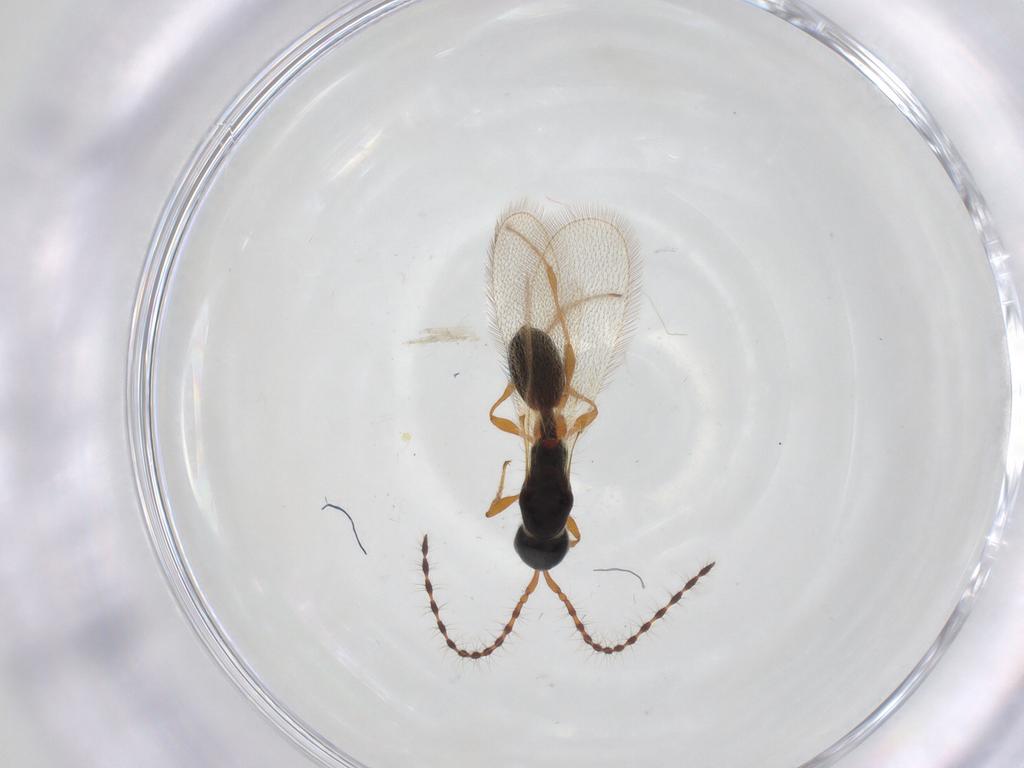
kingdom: Animalia
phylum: Arthropoda
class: Insecta
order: Hymenoptera
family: Diapriidae
